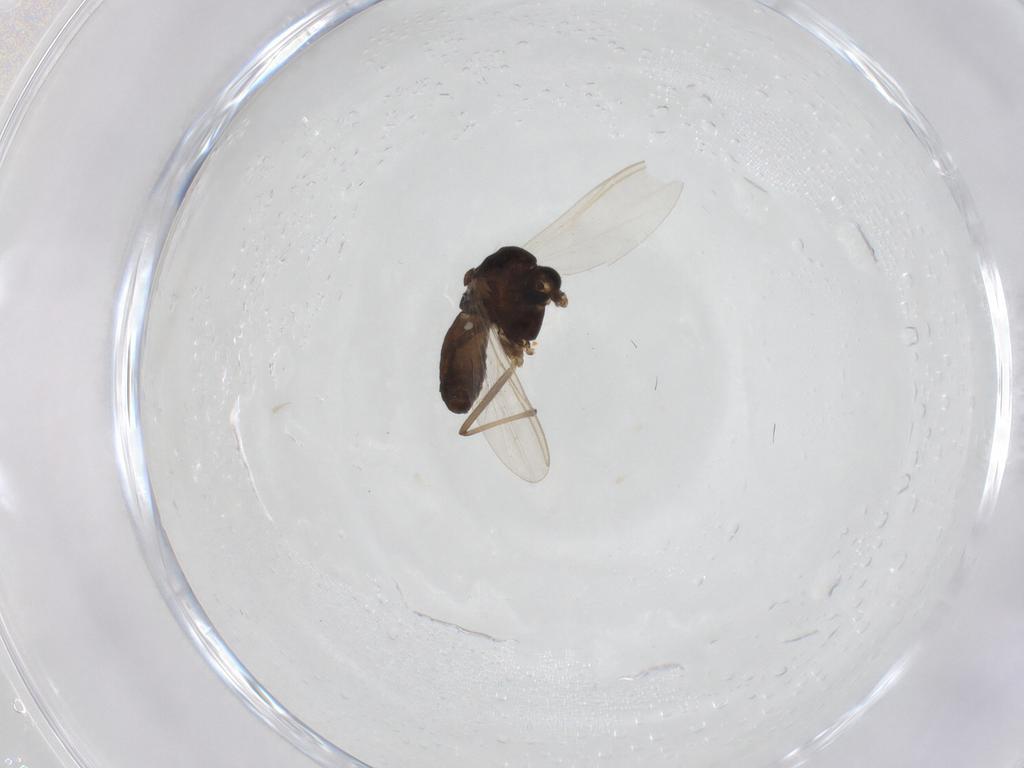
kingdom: Animalia
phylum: Arthropoda
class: Insecta
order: Diptera
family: Chironomidae
